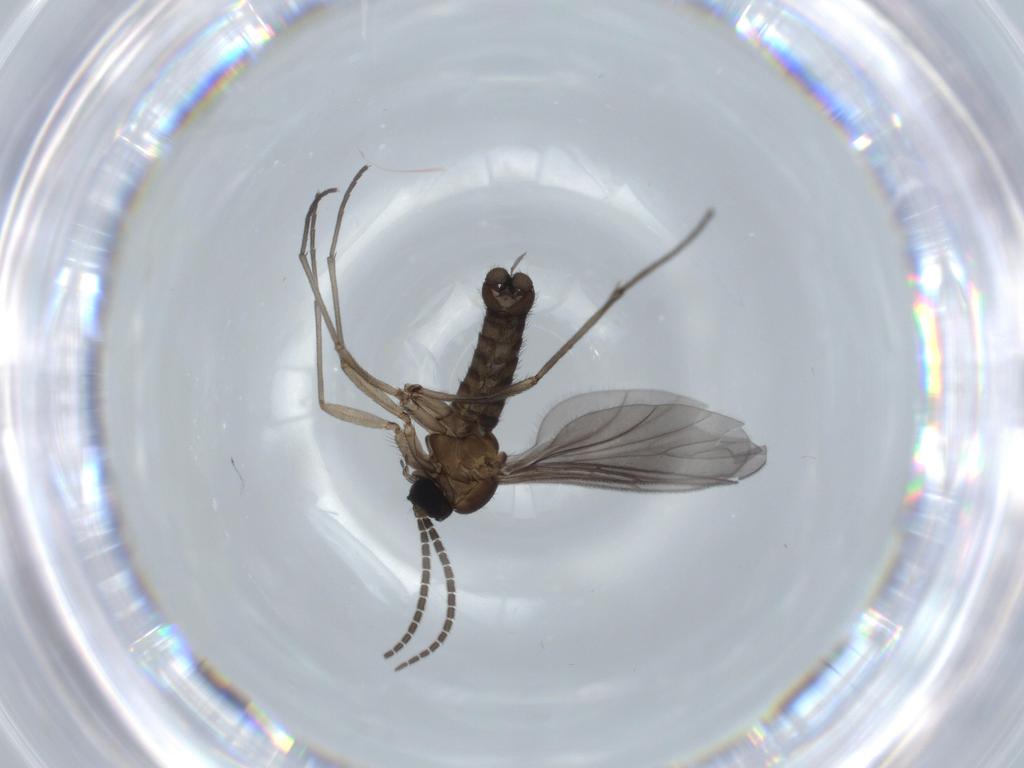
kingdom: Animalia
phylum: Arthropoda
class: Insecta
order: Diptera
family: Sciaridae
